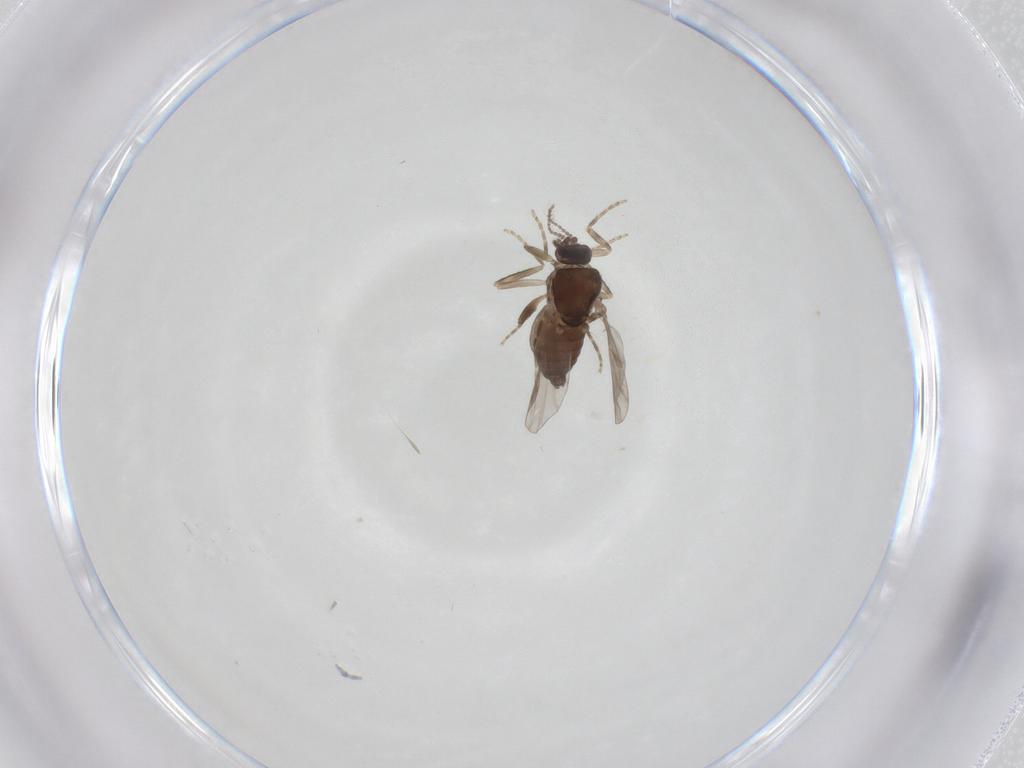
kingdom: Animalia
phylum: Arthropoda
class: Insecta
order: Diptera
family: Ceratopogonidae
